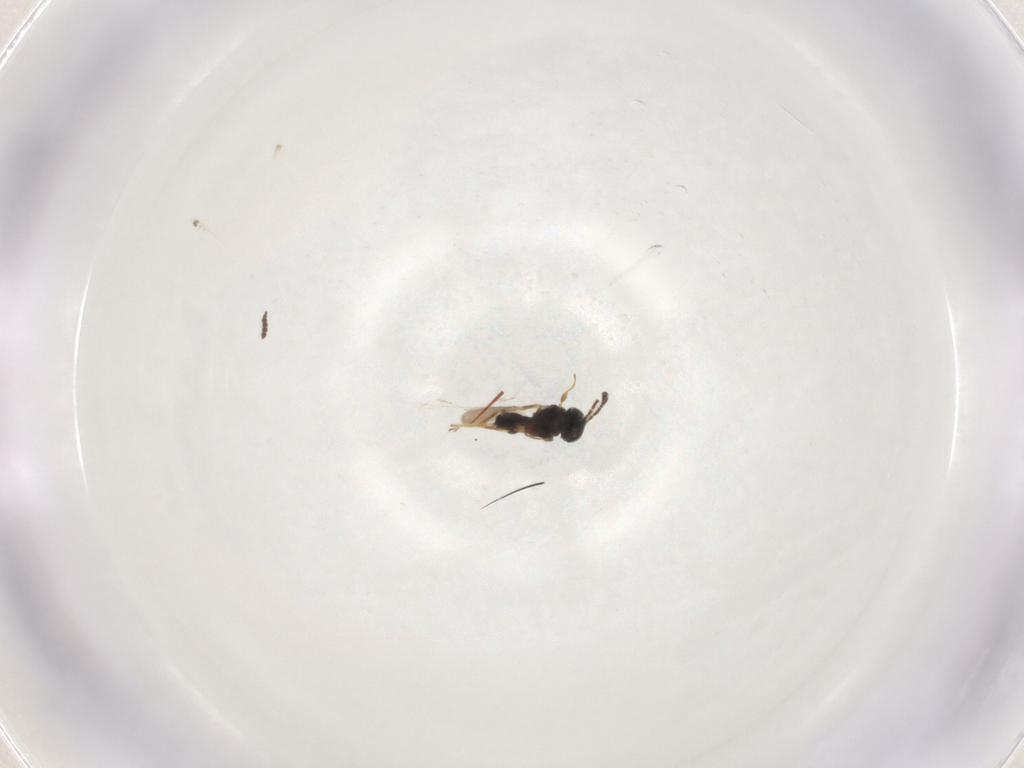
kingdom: Animalia
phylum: Arthropoda
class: Insecta
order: Hymenoptera
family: Scelionidae
